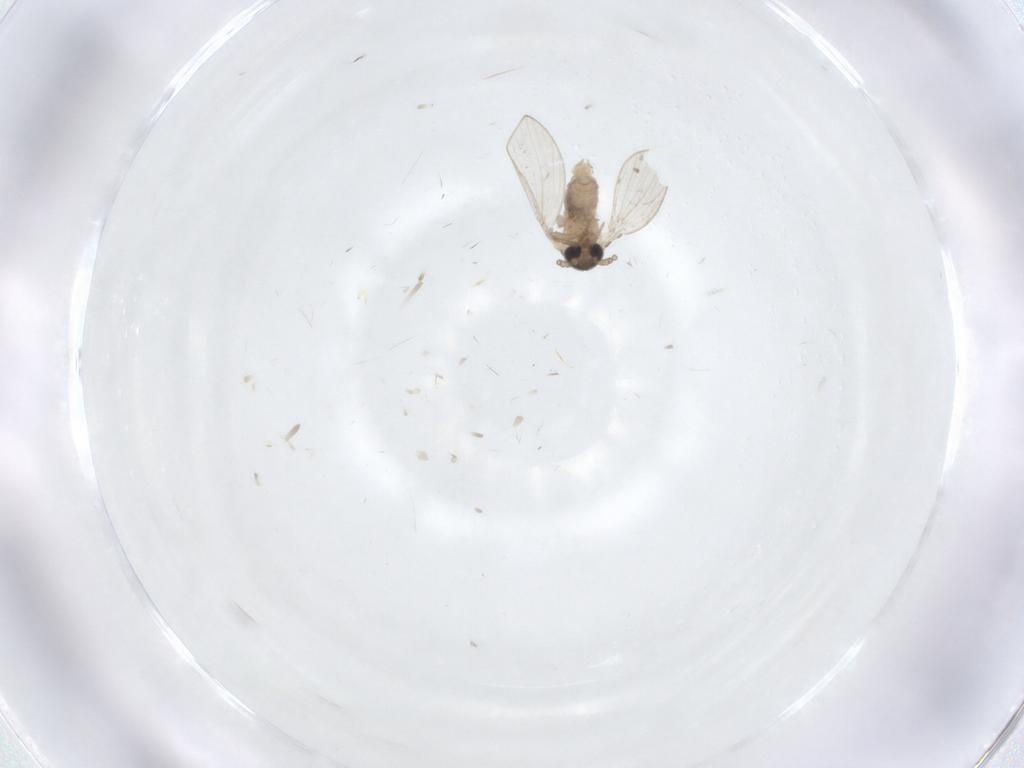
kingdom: Animalia
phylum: Arthropoda
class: Insecta
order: Diptera
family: Psychodidae
